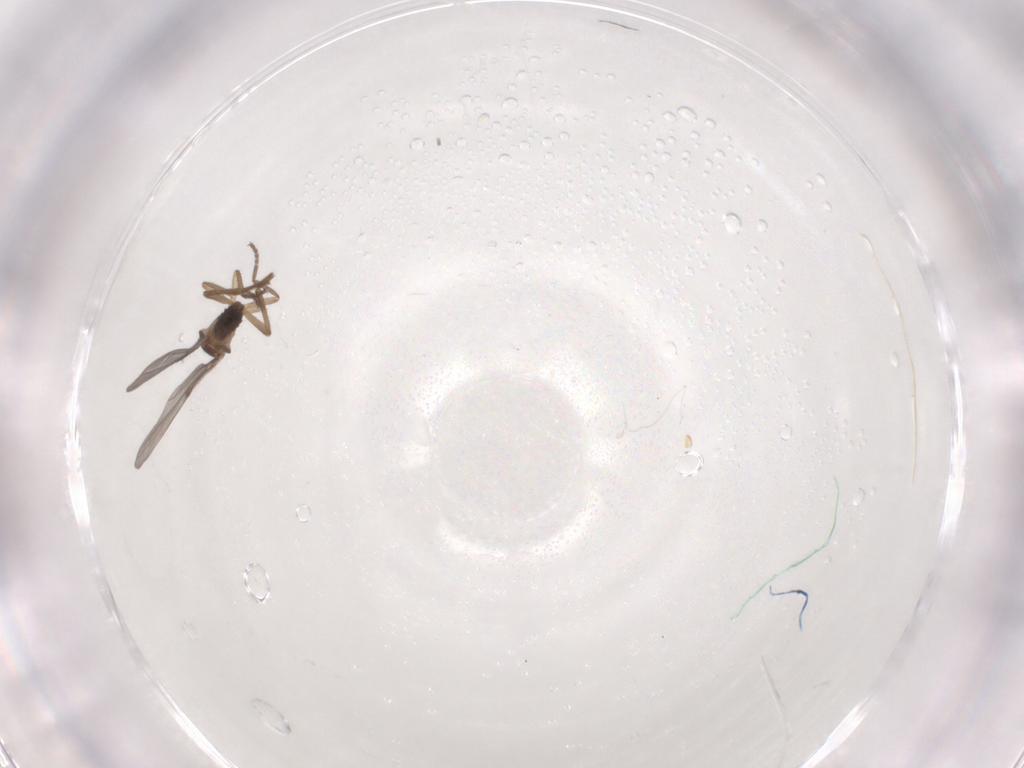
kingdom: Animalia
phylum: Arthropoda
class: Insecta
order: Diptera
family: Phoridae
